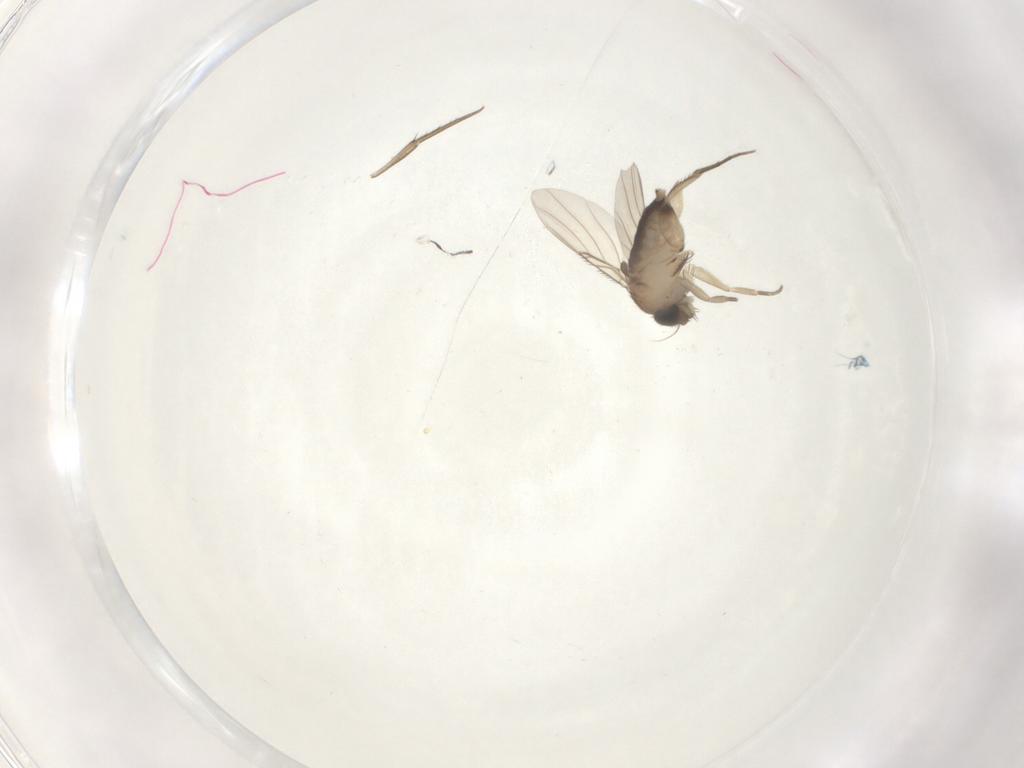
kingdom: Animalia
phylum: Arthropoda
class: Insecta
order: Diptera
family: Phoridae
